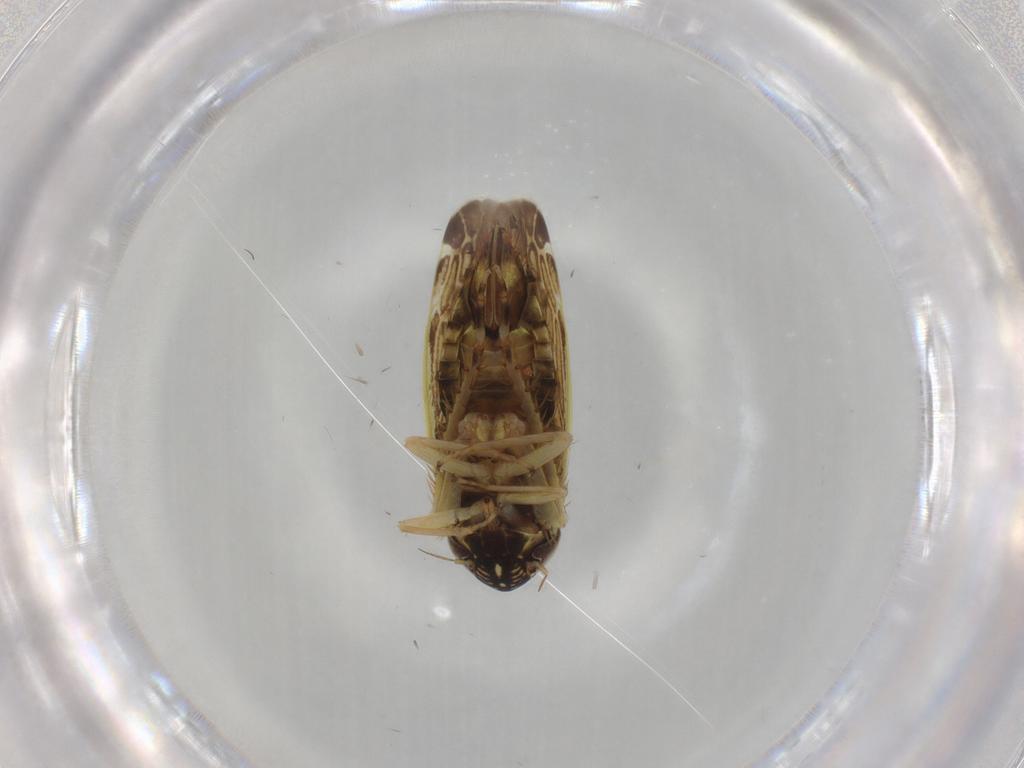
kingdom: Animalia
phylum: Arthropoda
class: Insecta
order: Hemiptera
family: Cicadellidae
